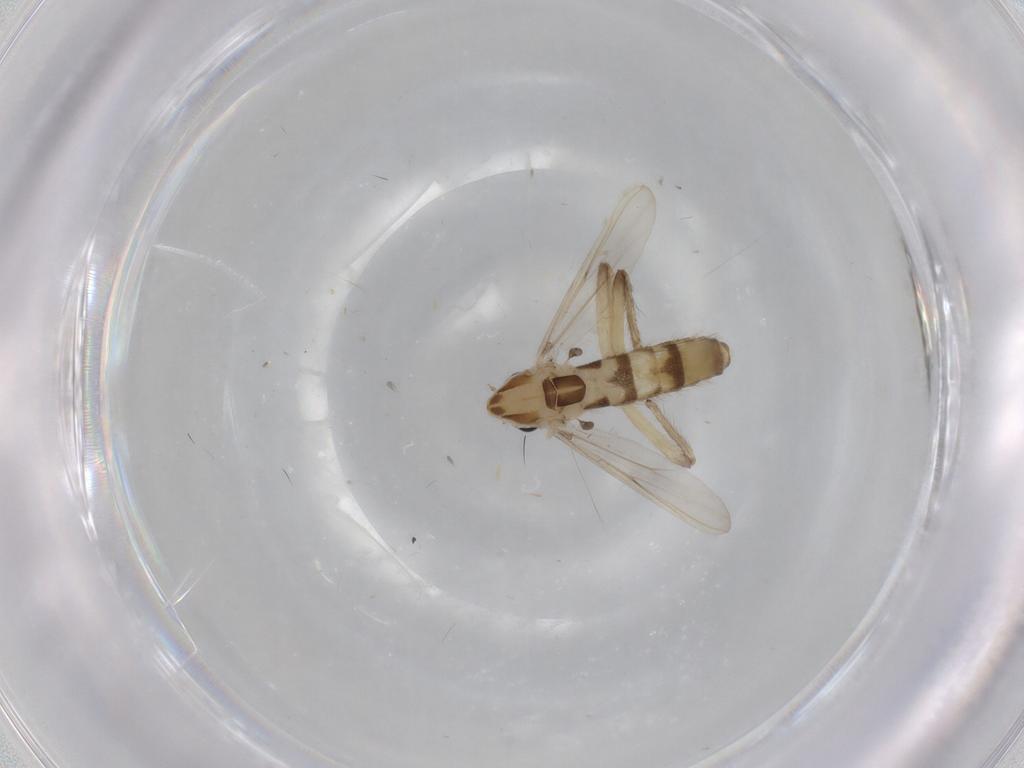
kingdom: Animalia
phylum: Arthropoda
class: Insecta
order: Diptera
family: Chironomidae
